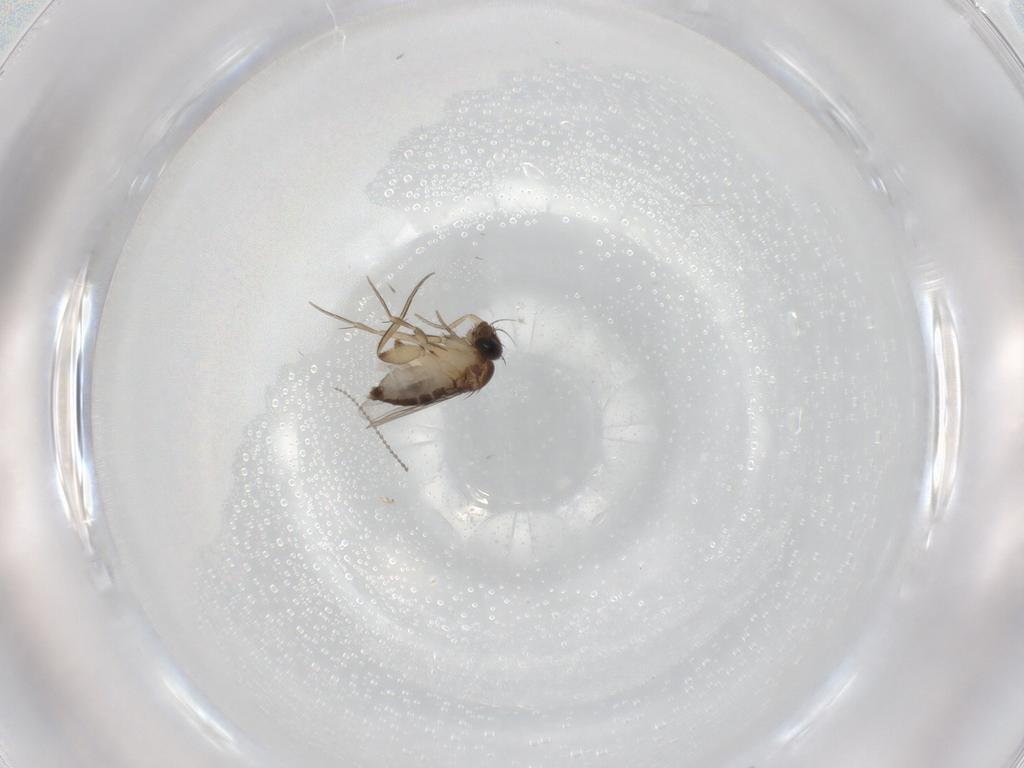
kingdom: Animalia
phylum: Arthropoda
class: Insecta
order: Diptera
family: Phoridae
